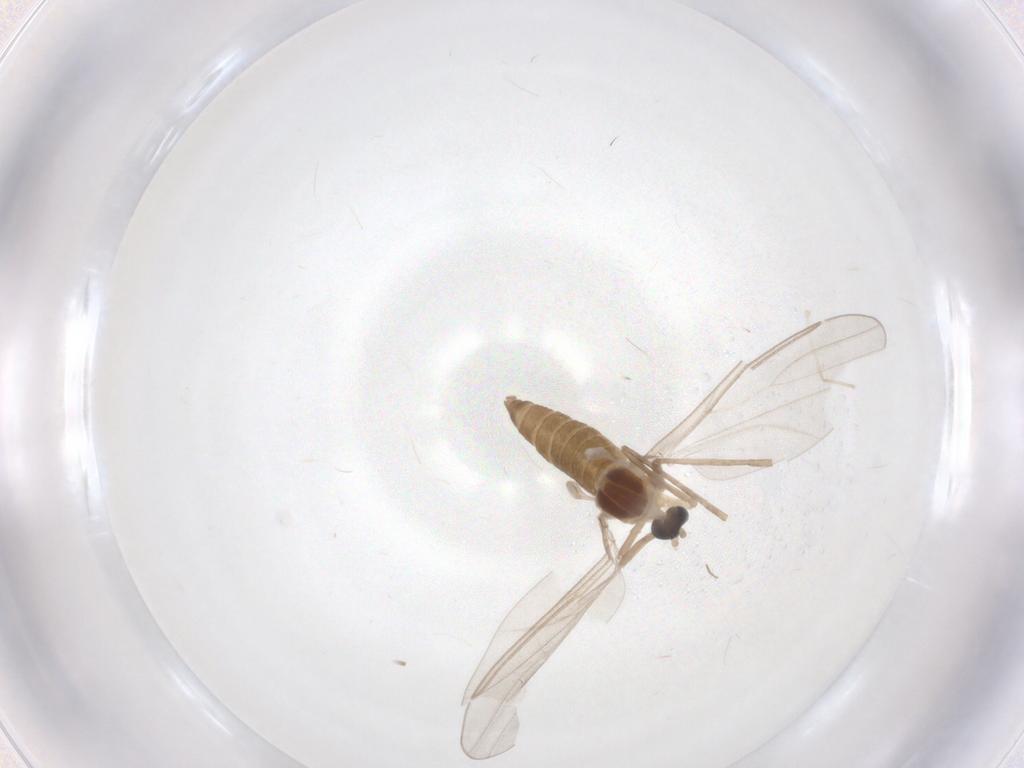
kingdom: Animalia
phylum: Arthropoda
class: Insecta
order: Diptera
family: Chironomidae
